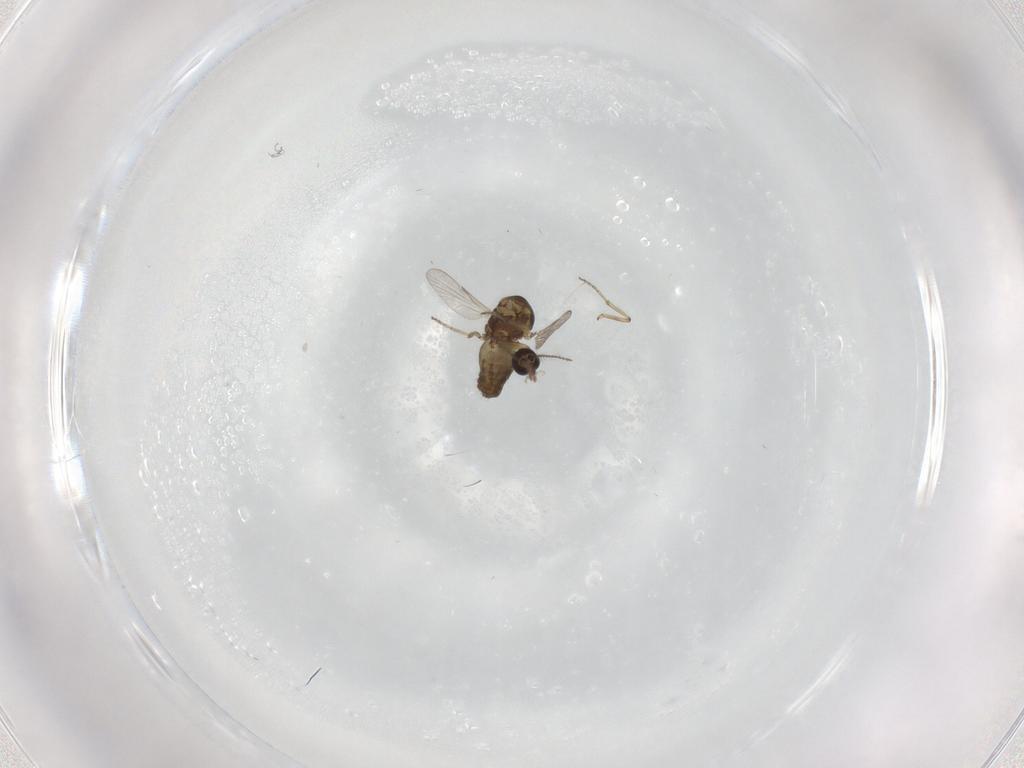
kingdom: Animalia
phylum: Arthropoda
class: Insecta
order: Diptera
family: Ceratopogonidae
